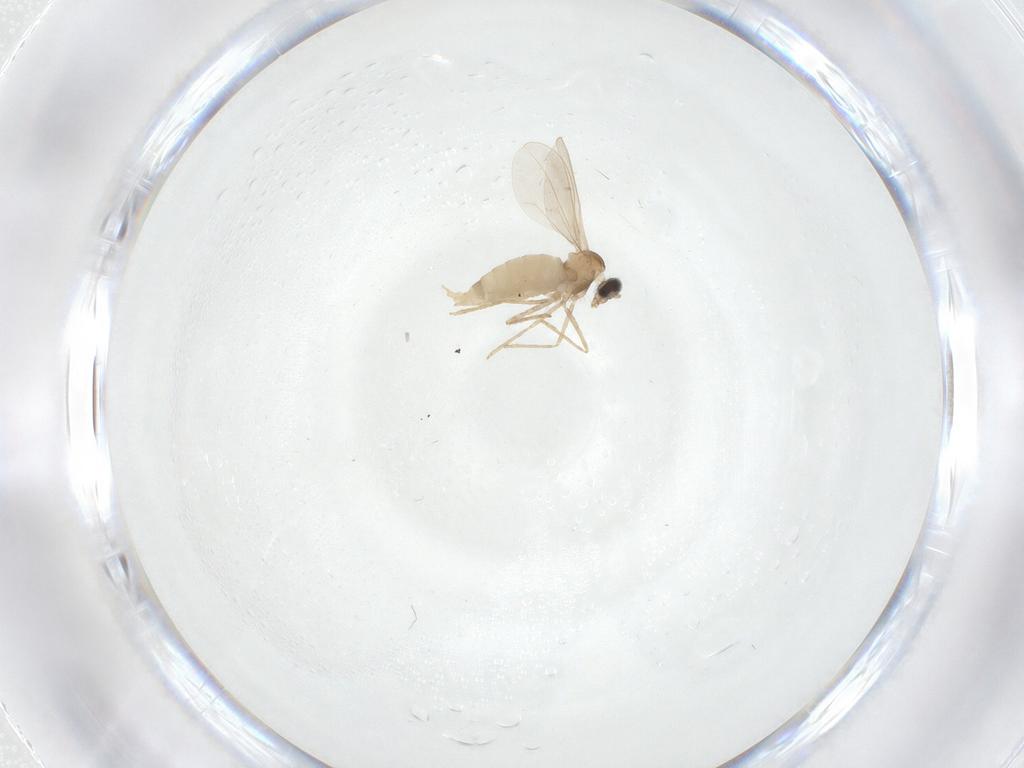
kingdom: Animalia
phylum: Arthropoda
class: Insecta
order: Diptera
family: Cecidomyiidae
